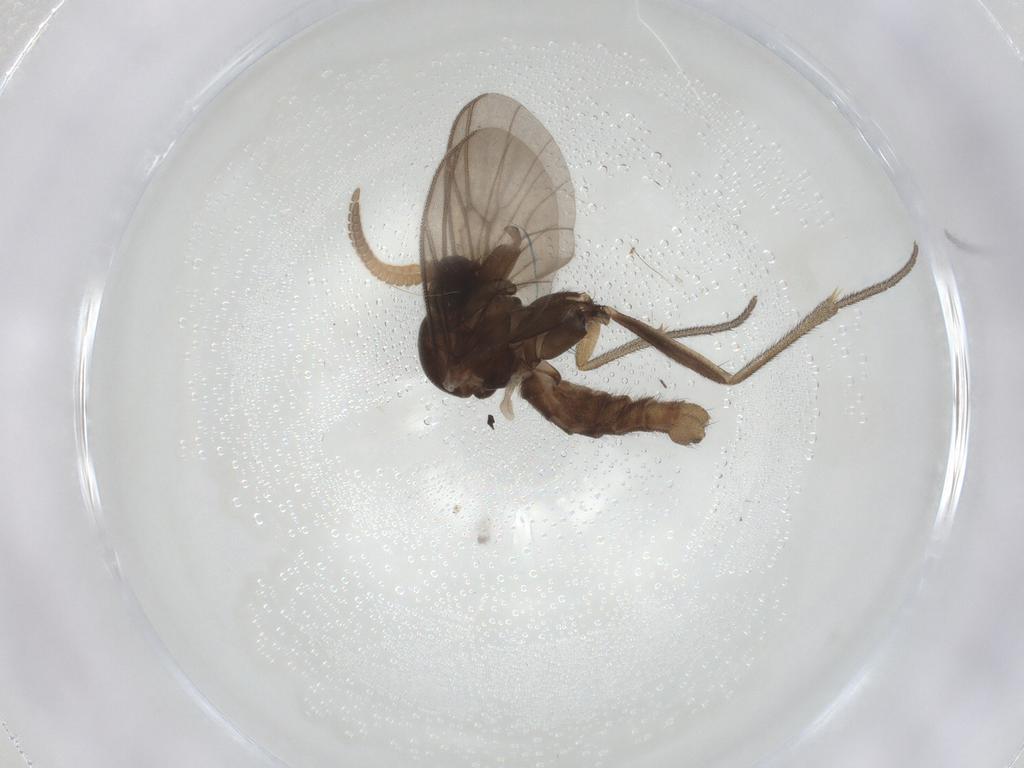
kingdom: Animalia
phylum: Arthropoda
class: Insecta
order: Diptera
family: Mycetophilidae
